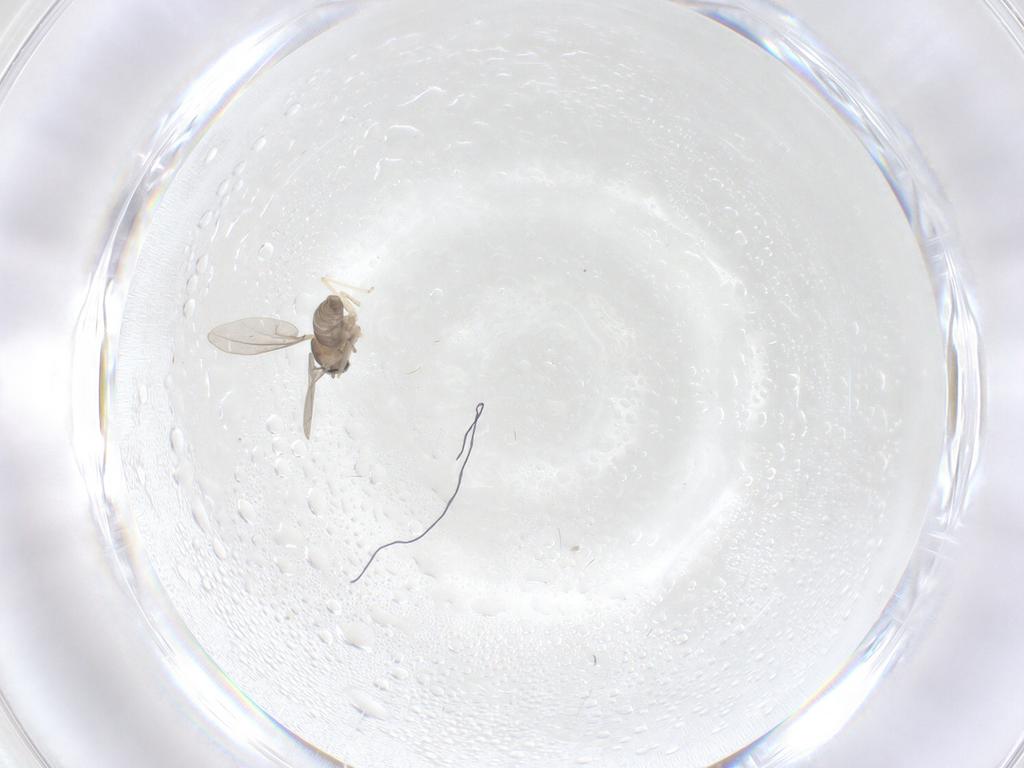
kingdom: Animalia
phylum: Arthropoda
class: Insecta
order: Diptera
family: Cecidomyiidae
